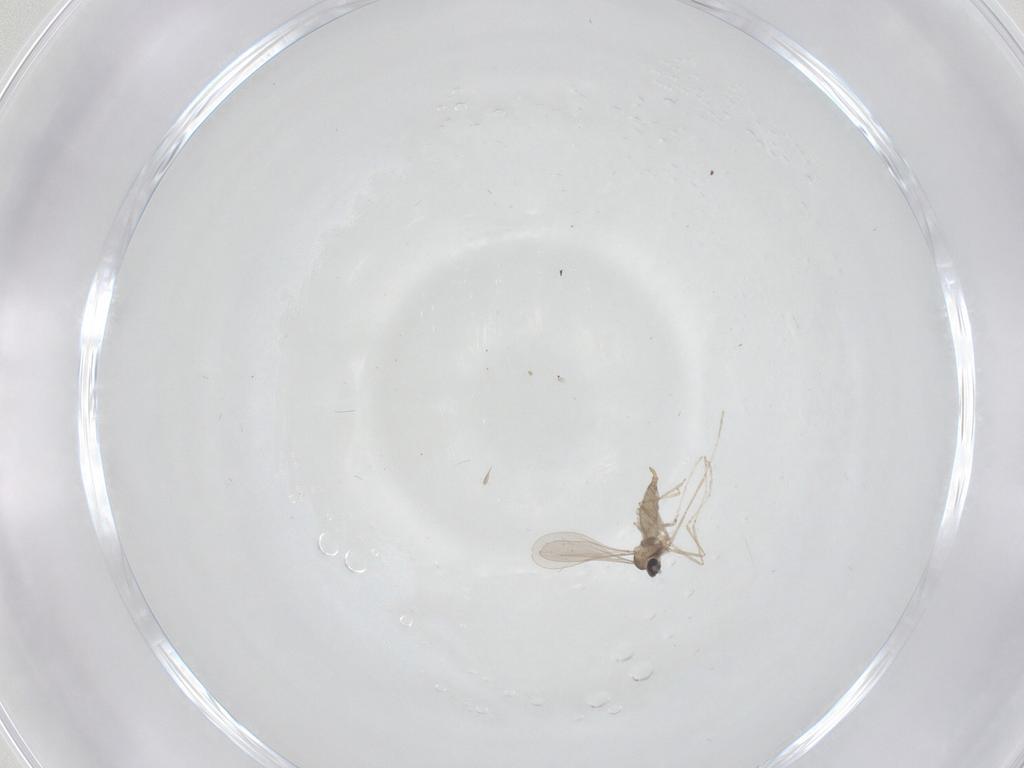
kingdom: Animalia
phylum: Arthropoda
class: Insecta
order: Diptera
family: Ceratopogonidae
